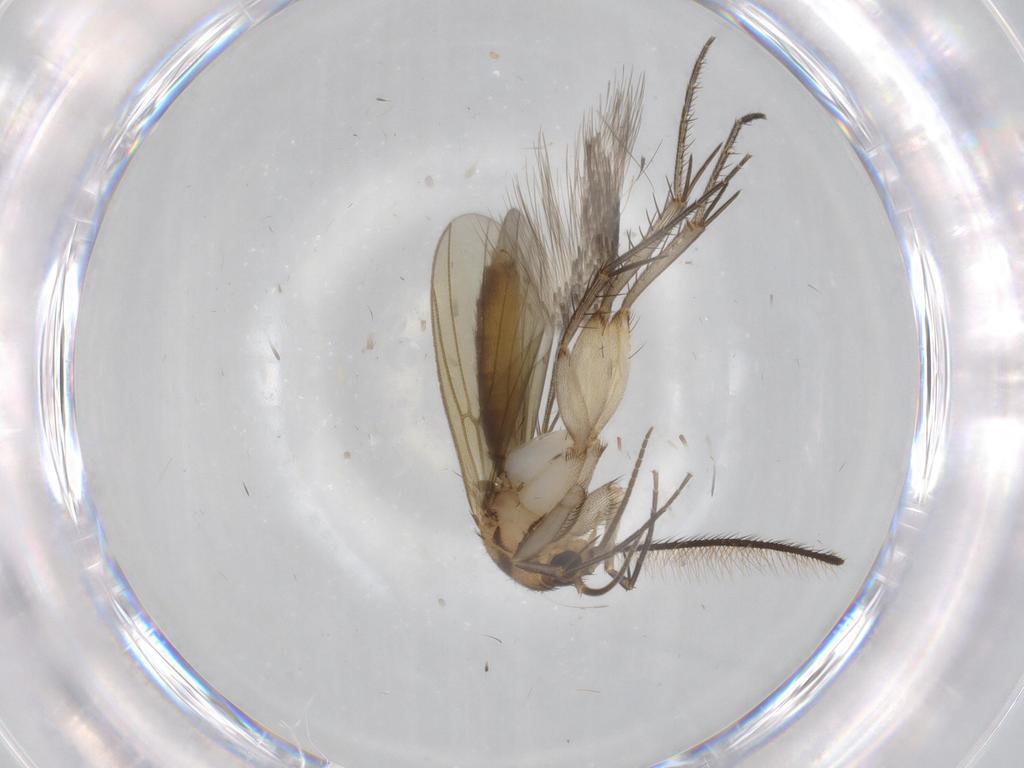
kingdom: Animalia
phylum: Arthropoda
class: Insecta
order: Diptera
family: Mycetophilidae
